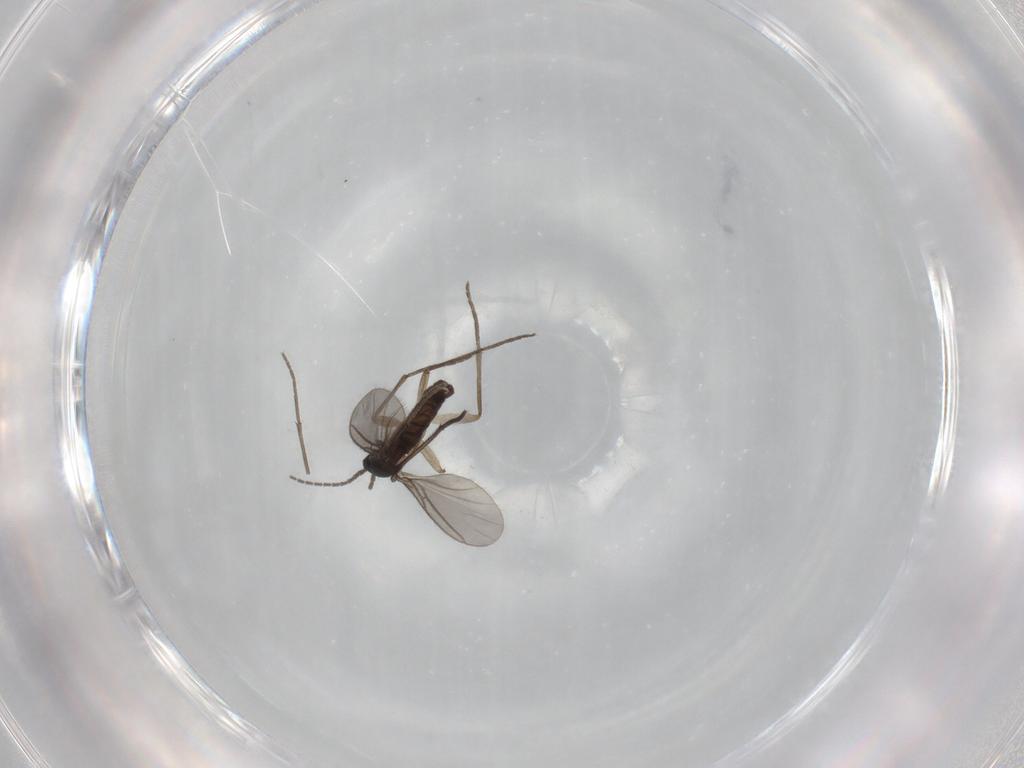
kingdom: Animalia
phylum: Arthropoda
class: Insecta
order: Diptera
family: Sciaridae
